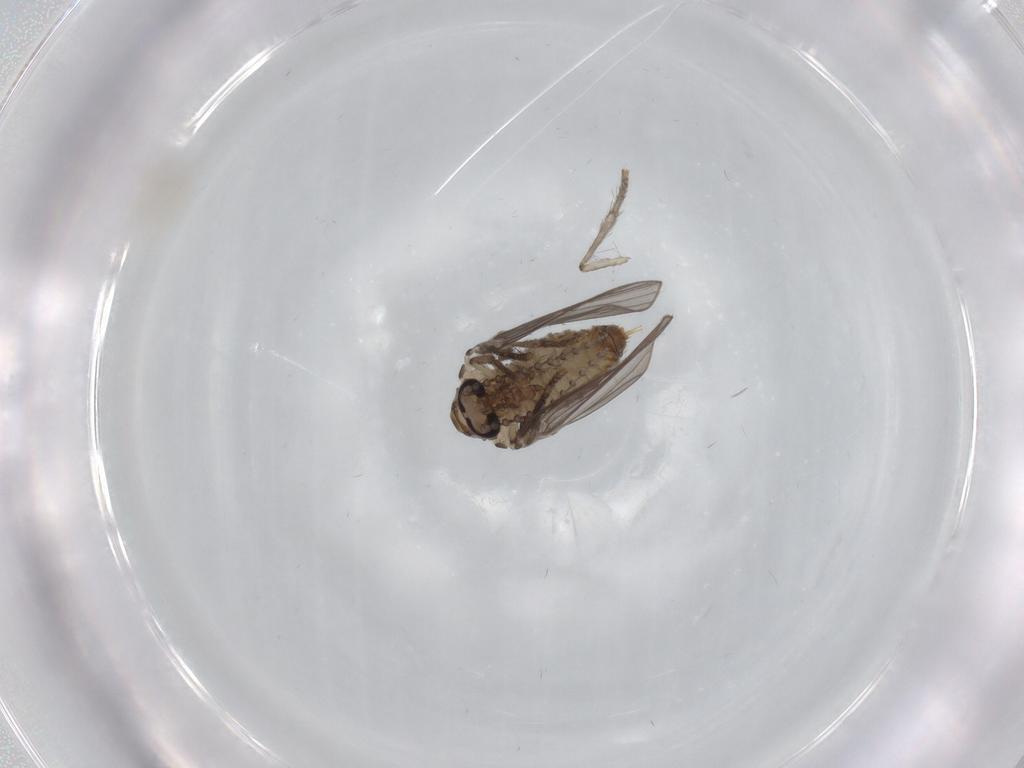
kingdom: Animalia
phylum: Arthropoda
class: Insecta
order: Diptera
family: Psychodidae
